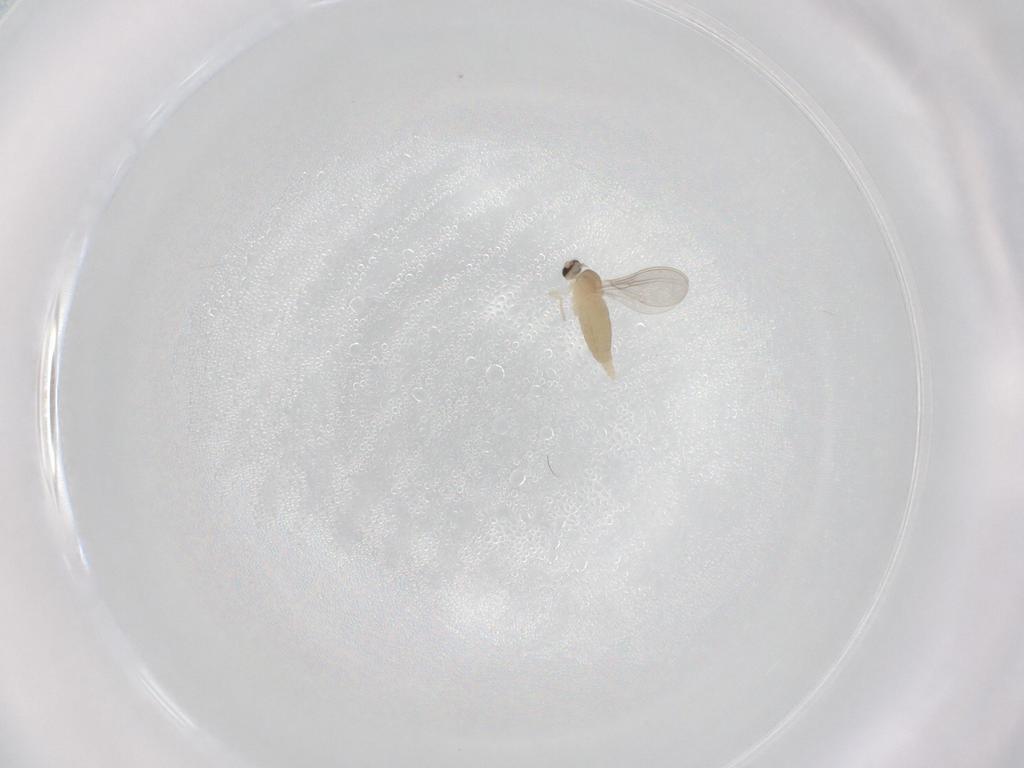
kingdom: Animalia
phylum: Arthropoda
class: Insecta
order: Diptera
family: Cecidomyiidae
